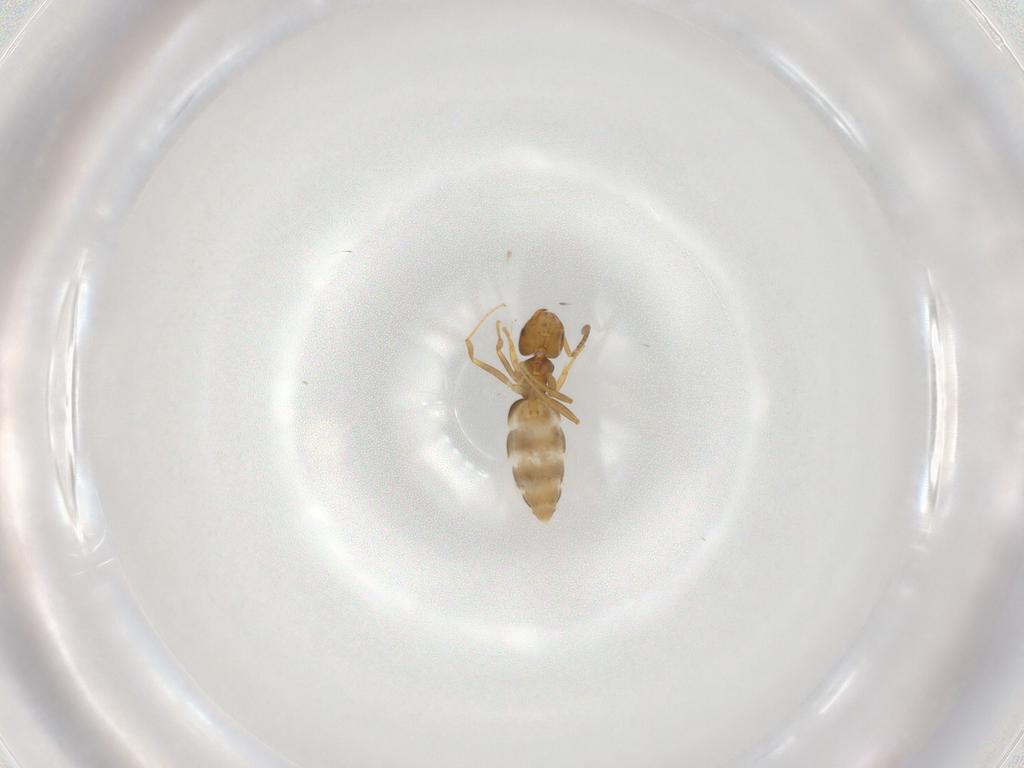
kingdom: Animalia
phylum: Arthropoda
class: Insecta
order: Hymenoptera
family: Formicidae
